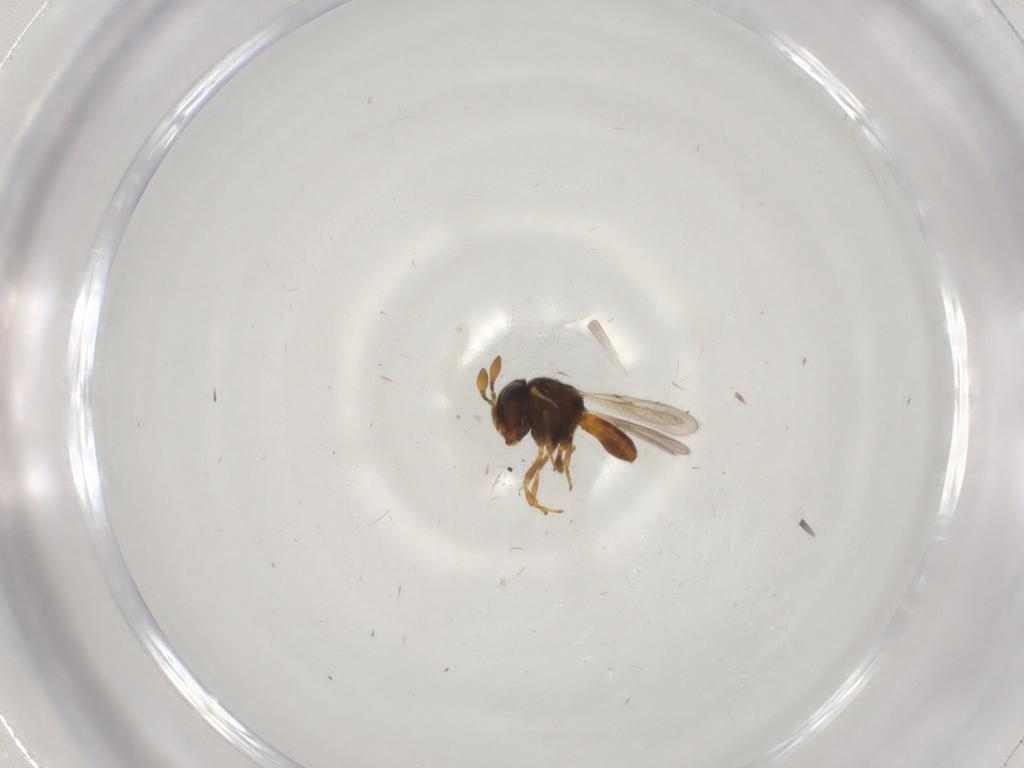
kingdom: Animalia
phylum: Arthropoda
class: Insecta
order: Hymenoptera
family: Scelionidae
